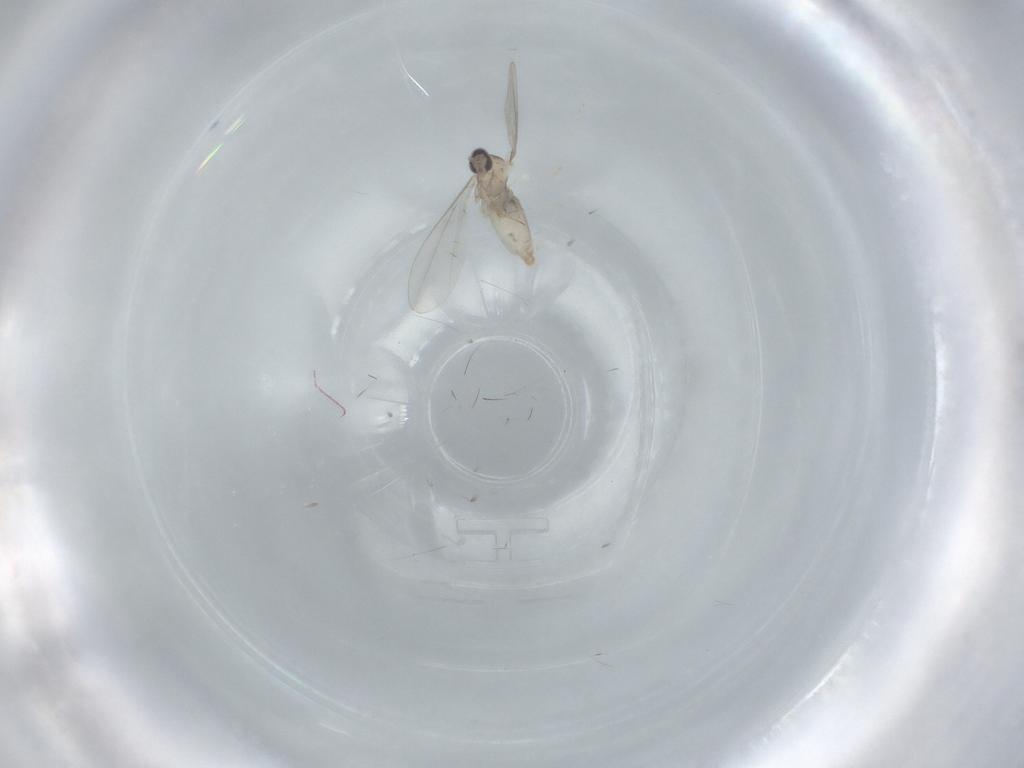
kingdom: Animalia
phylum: Arthropoda
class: Insecta
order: Diptera
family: Cecidomyiidae
